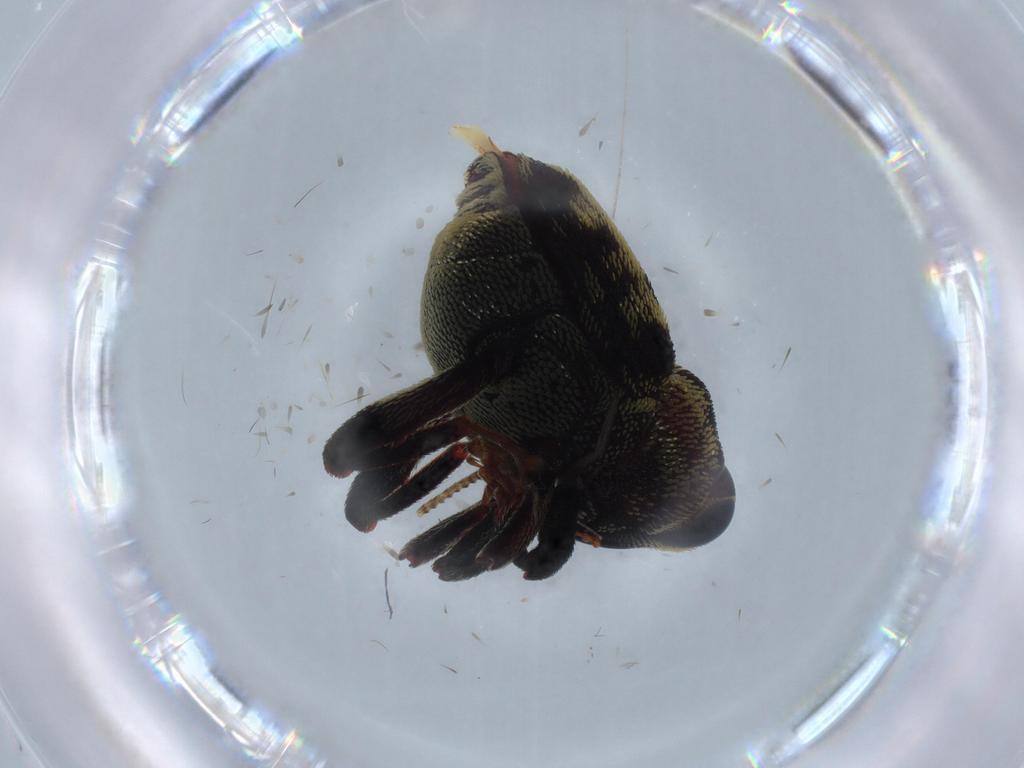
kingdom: Animalia
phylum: Arthropoda
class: Insecta
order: Coleoptera
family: Curculionidae
